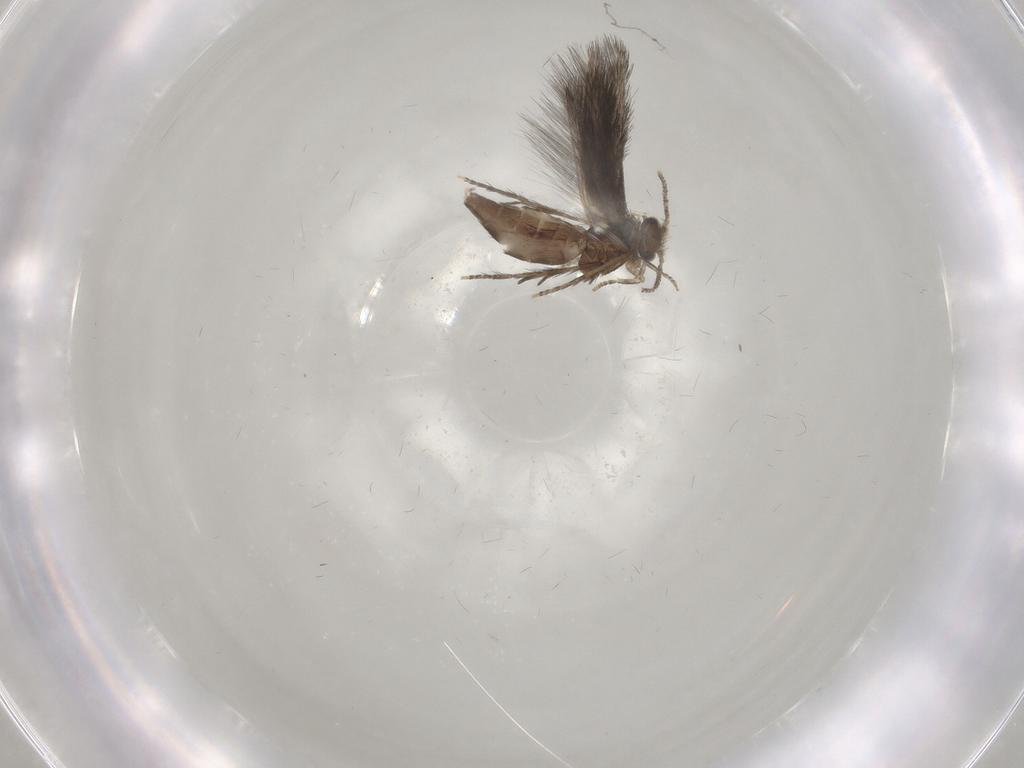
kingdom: Animalia
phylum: Arthropoda
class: Insecta
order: Trichoptera
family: Hydroptilidae
